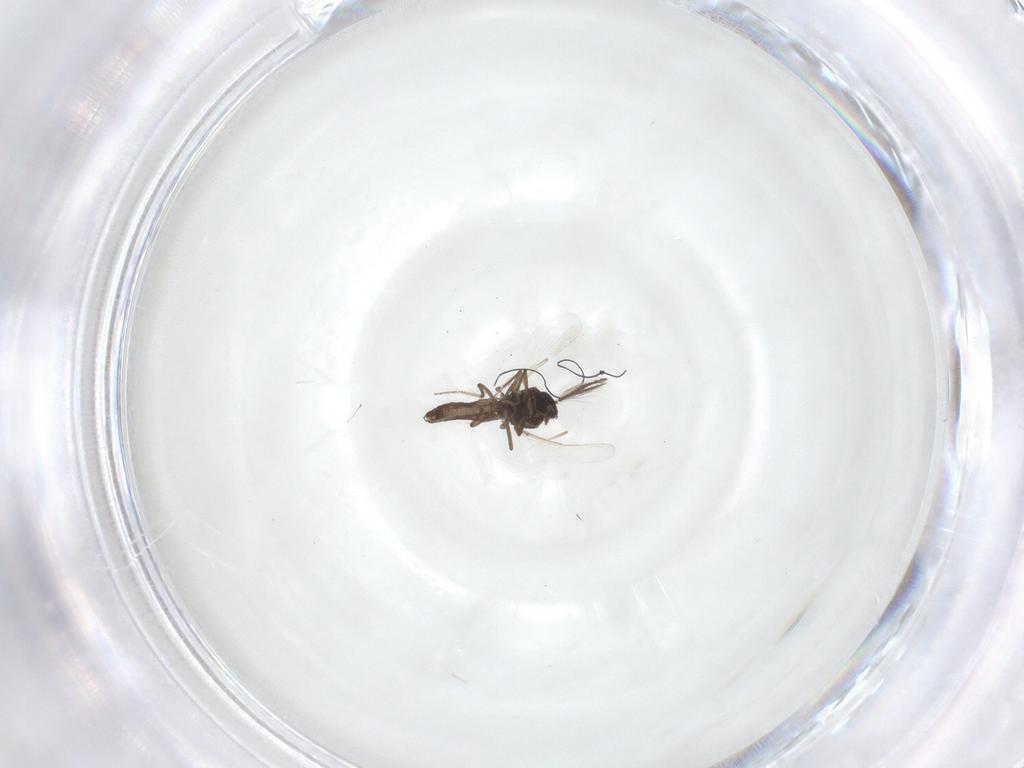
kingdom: Animalia
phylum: Arthropoda
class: Insecta
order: Diptera
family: Ceratopogonidae
